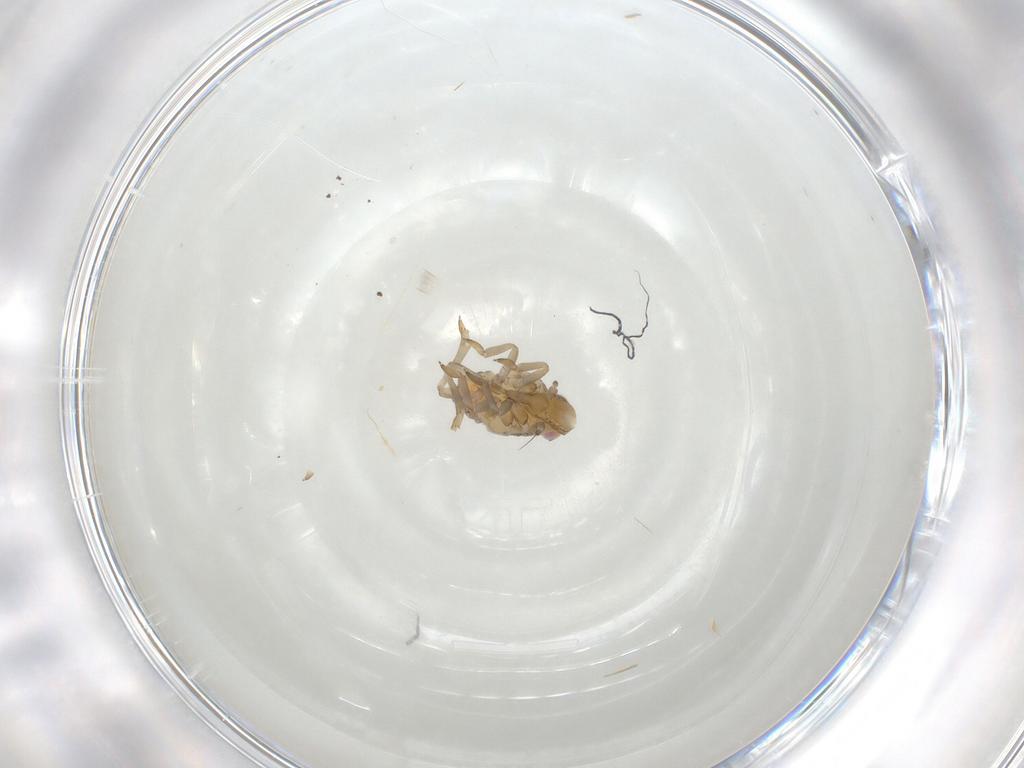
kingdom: Animalia
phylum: Arthropoda
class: Insecta
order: Hemiptera
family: Tropiduchidae
